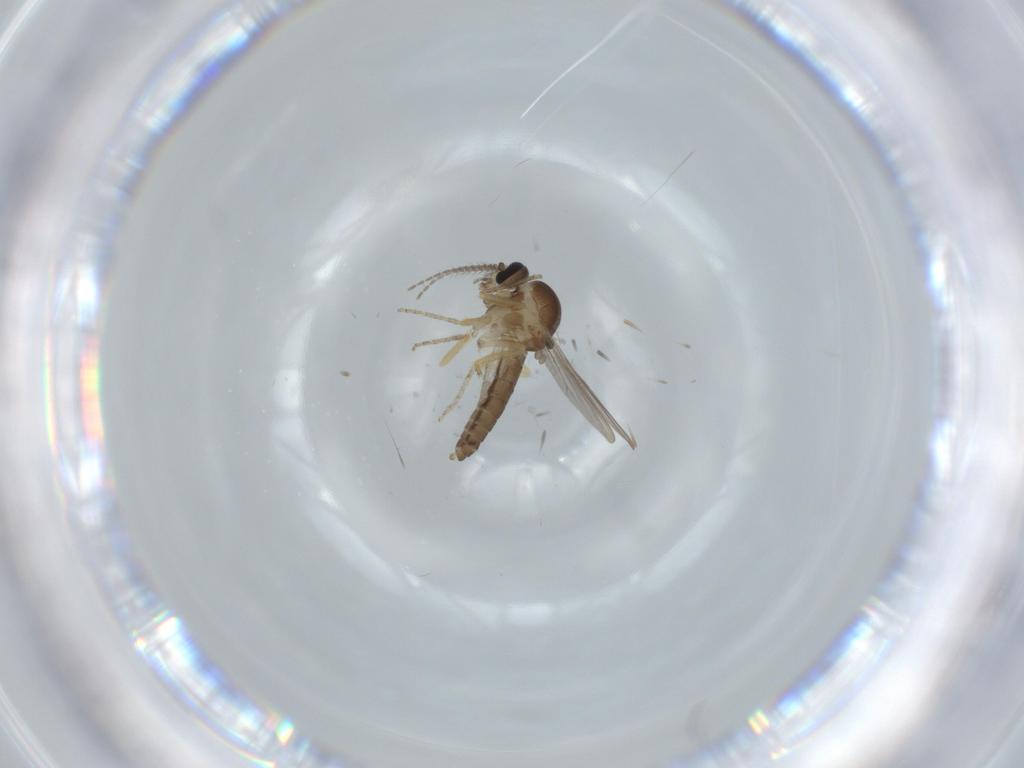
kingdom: Animalia
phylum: Arthropoda
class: Insecta
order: Diptera
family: Ceratopogonidae
